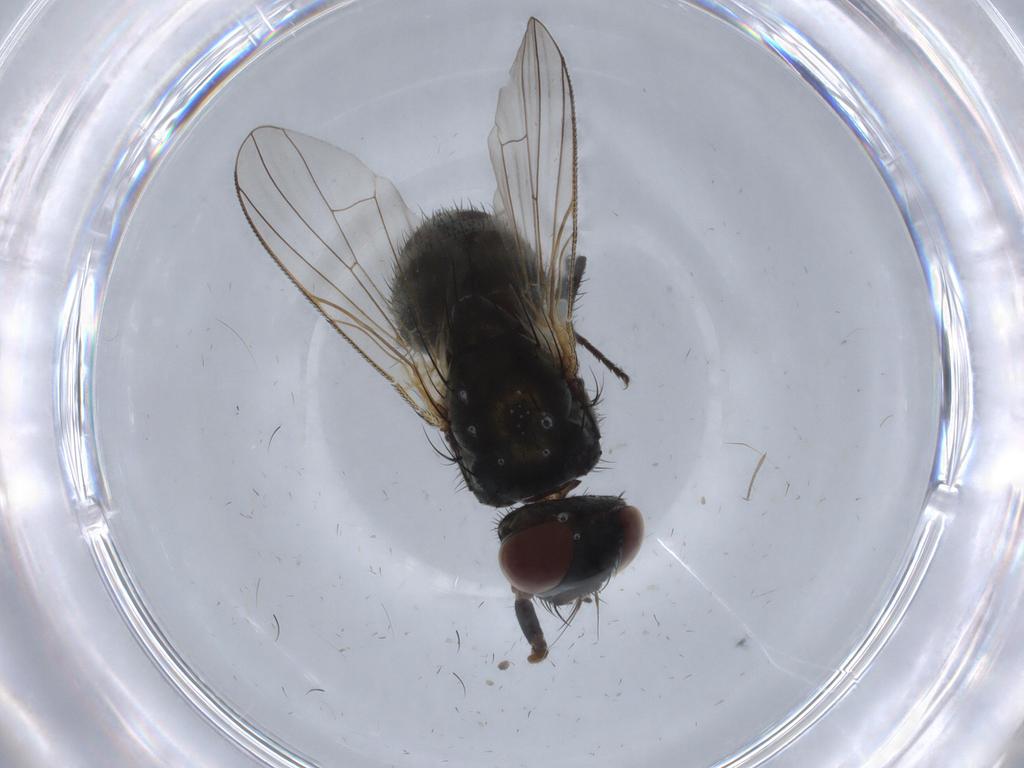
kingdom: Animalia
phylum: Arthropoda
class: Insecta
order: Diptera
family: Muscidae
